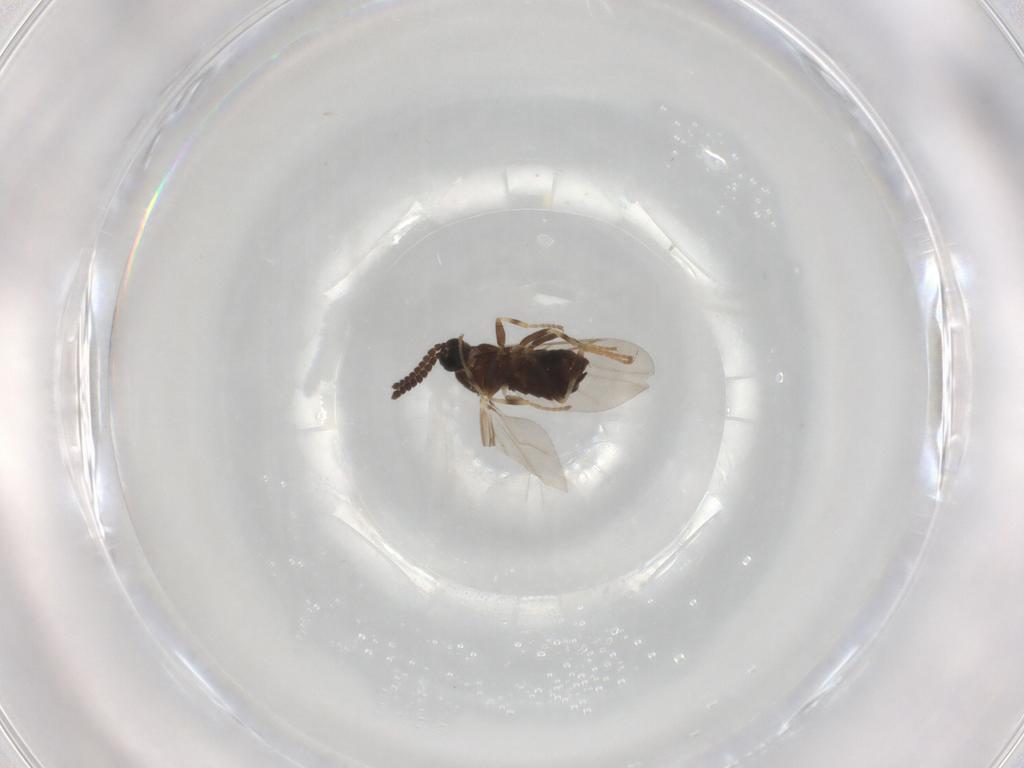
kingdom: Animalia
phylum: Arthropoda
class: Insecta
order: Diptera
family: Scatopsidae
